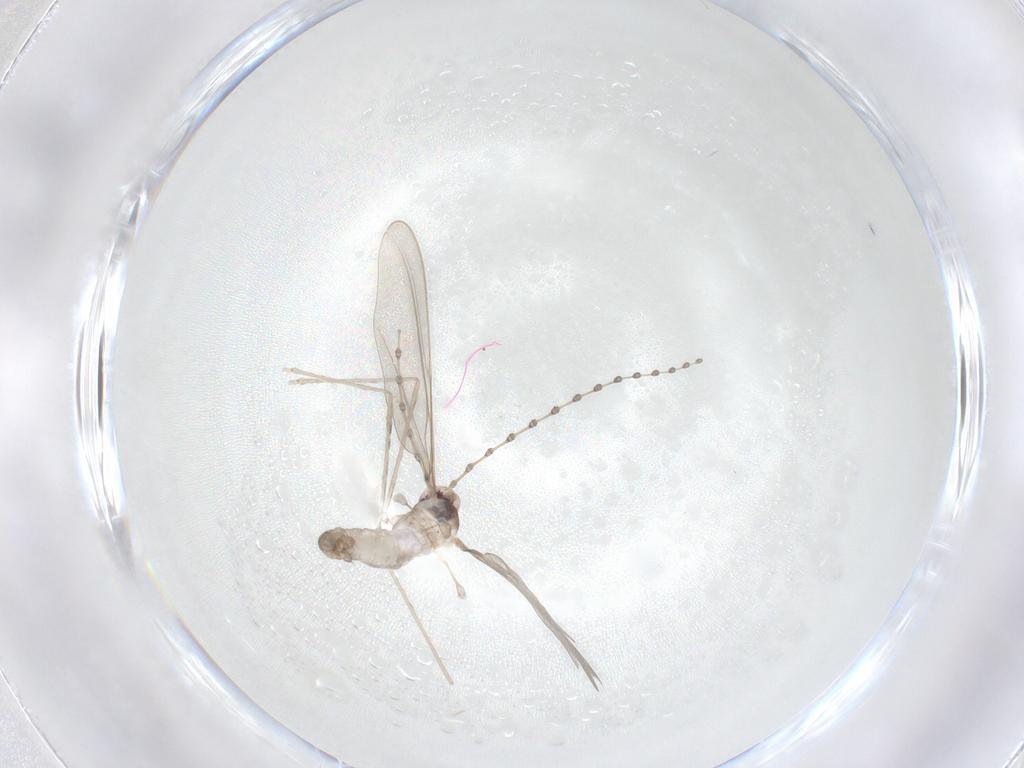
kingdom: Animalia
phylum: Arthropoda
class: Insecta
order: Diptera
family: Cecidomyiidae
